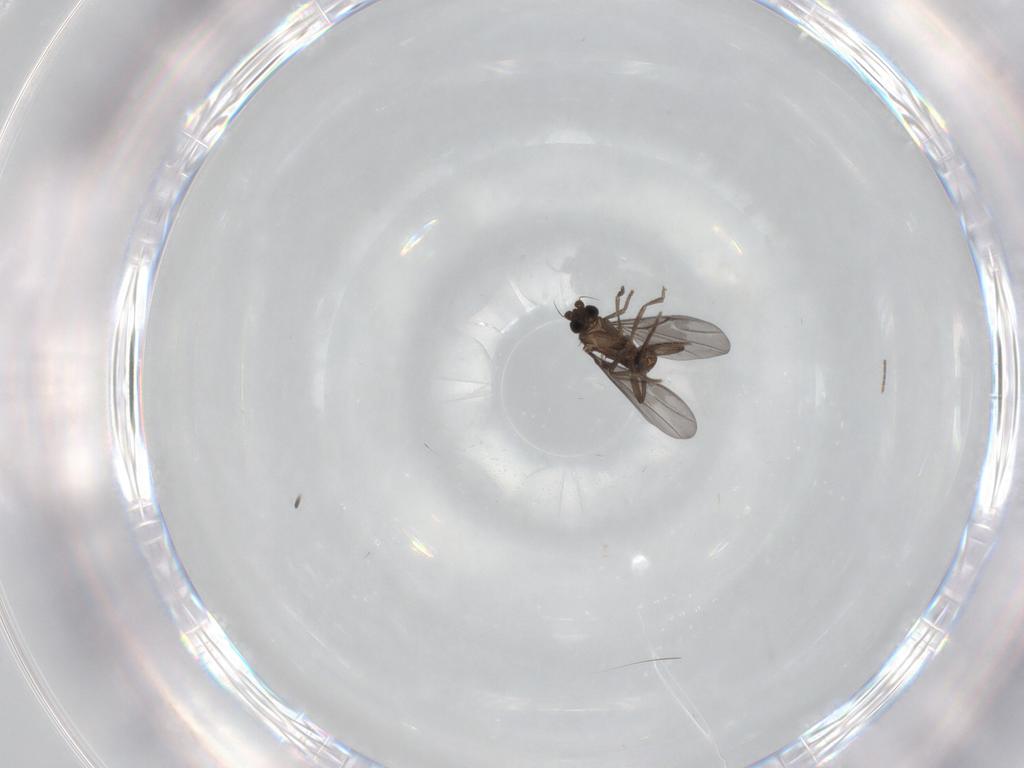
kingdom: Animalia
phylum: Arthropoda
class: Insecta
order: Diptera
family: Phoridae
